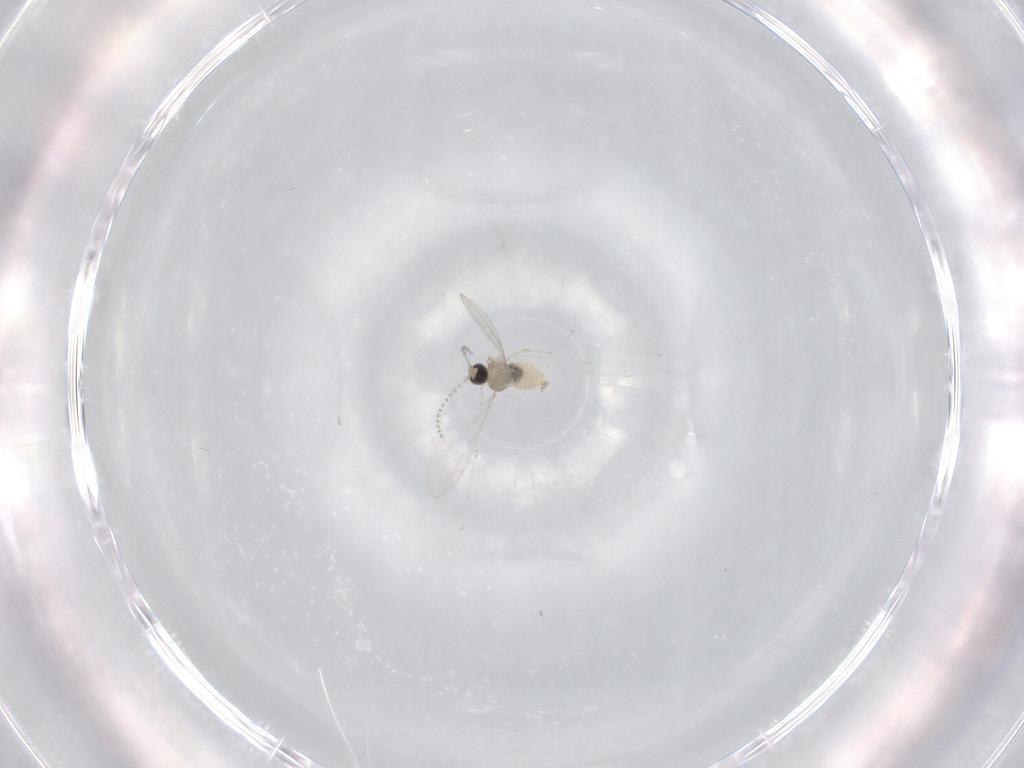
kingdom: Animalia
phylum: Arthropoda
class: Insecta
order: Diptera
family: Cecidomyiidae
